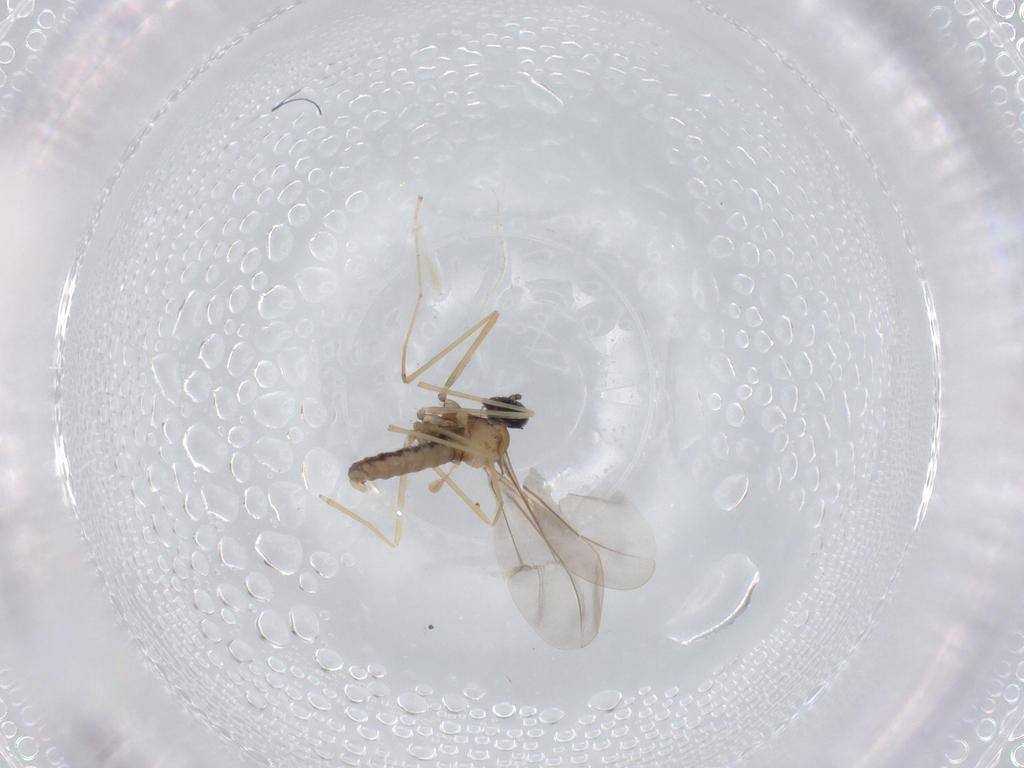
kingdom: Animalia
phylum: Arthropoda
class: Insecta
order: Diptera
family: Cecidomyiidae
